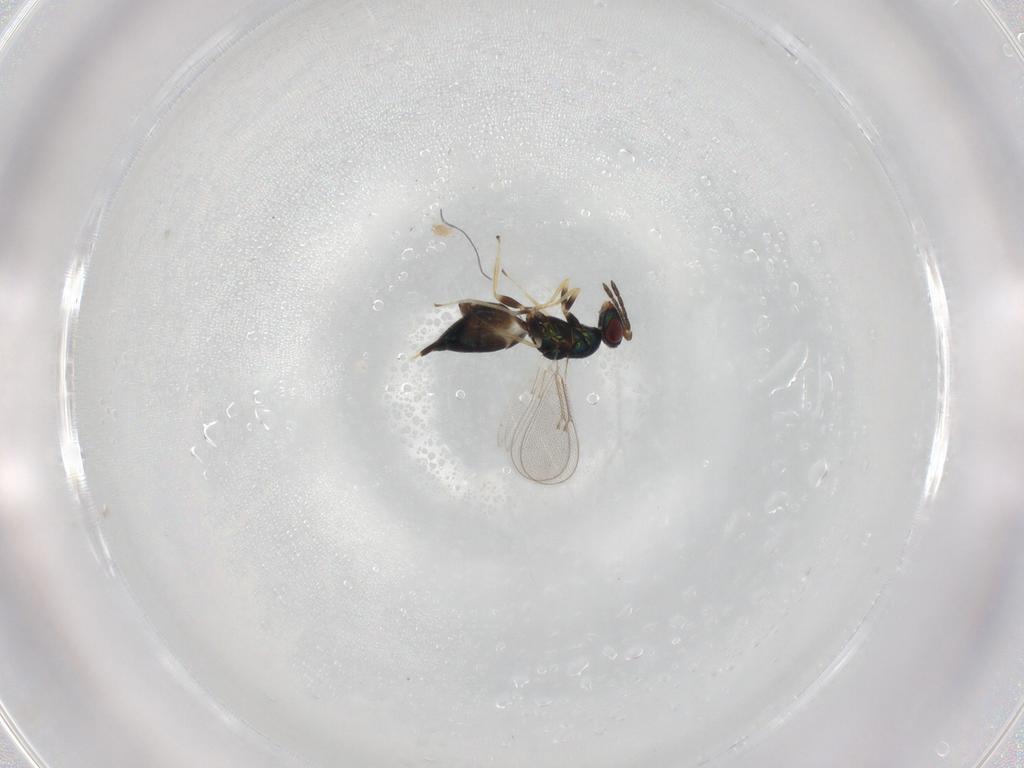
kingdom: Animalia
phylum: Arthropoda
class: Insecta
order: Hymenoptera
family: Eulophidae
